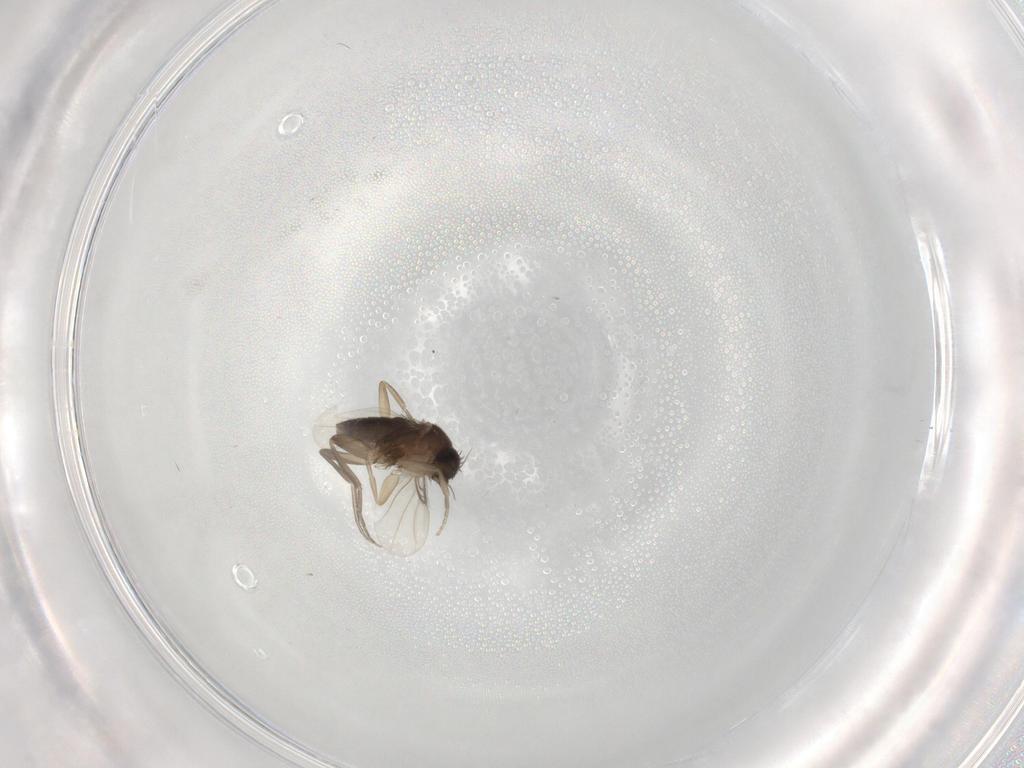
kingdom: Animalia
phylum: Arthropoda
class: Insecta
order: Diptera
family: Phoridae
